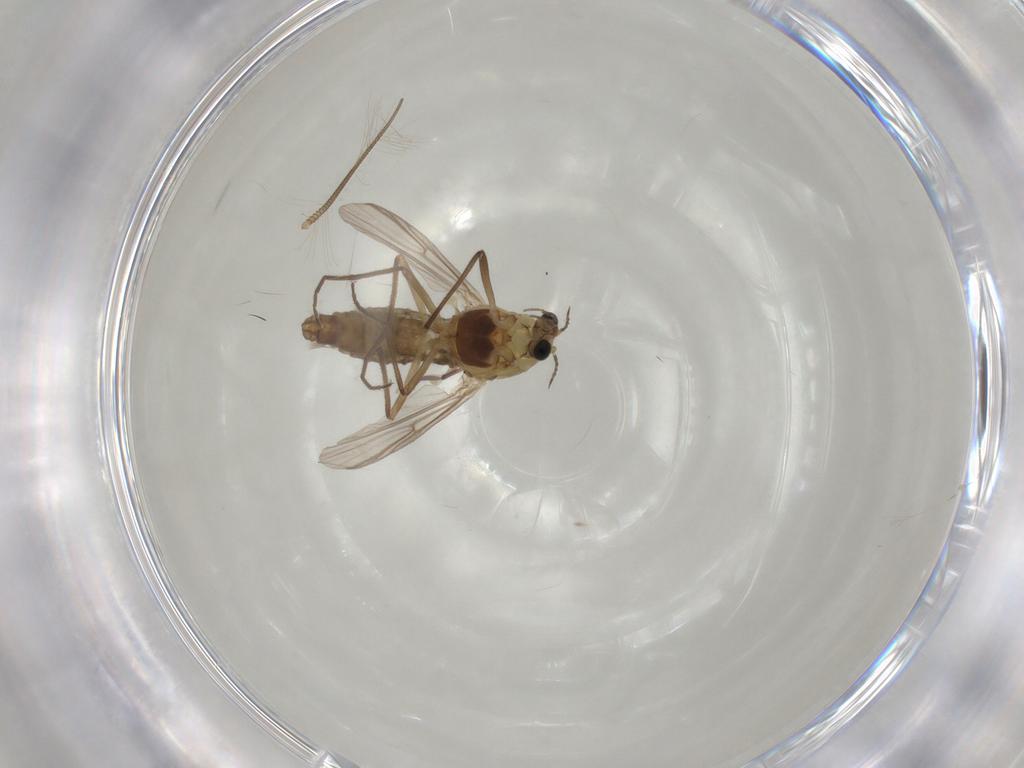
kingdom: Animalia
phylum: Arthropoda
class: Insecta
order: Diptera
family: Chironomidae
